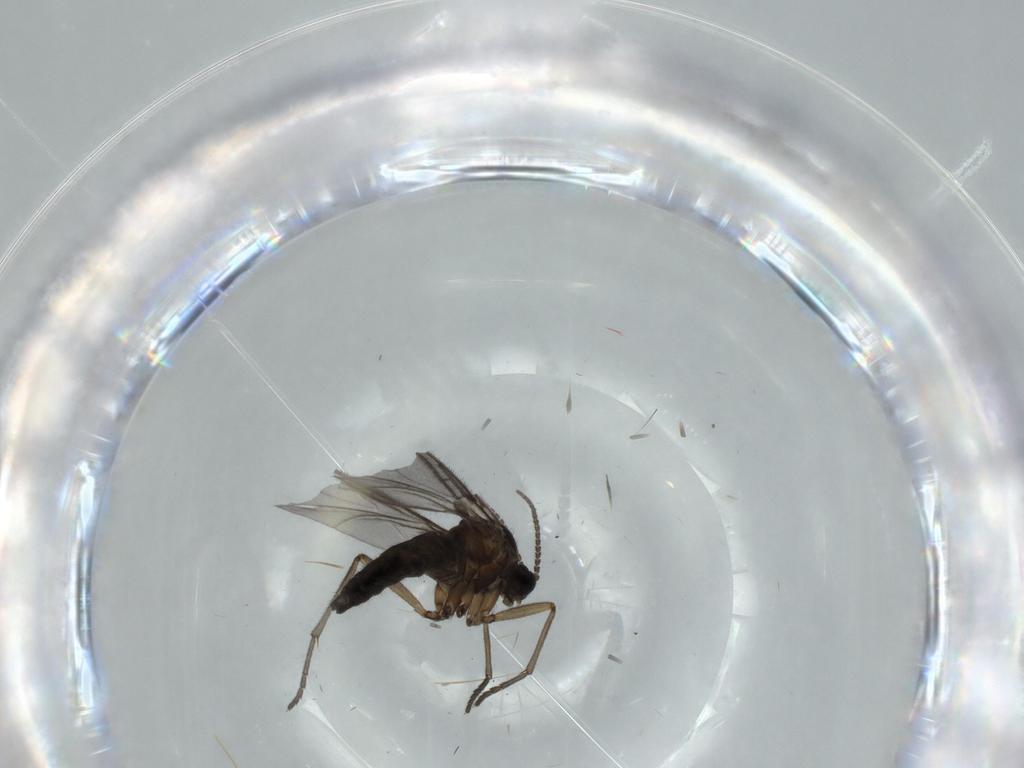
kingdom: Animalia
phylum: Arthropoda
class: Insecta
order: Diptera
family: Sciaridae
